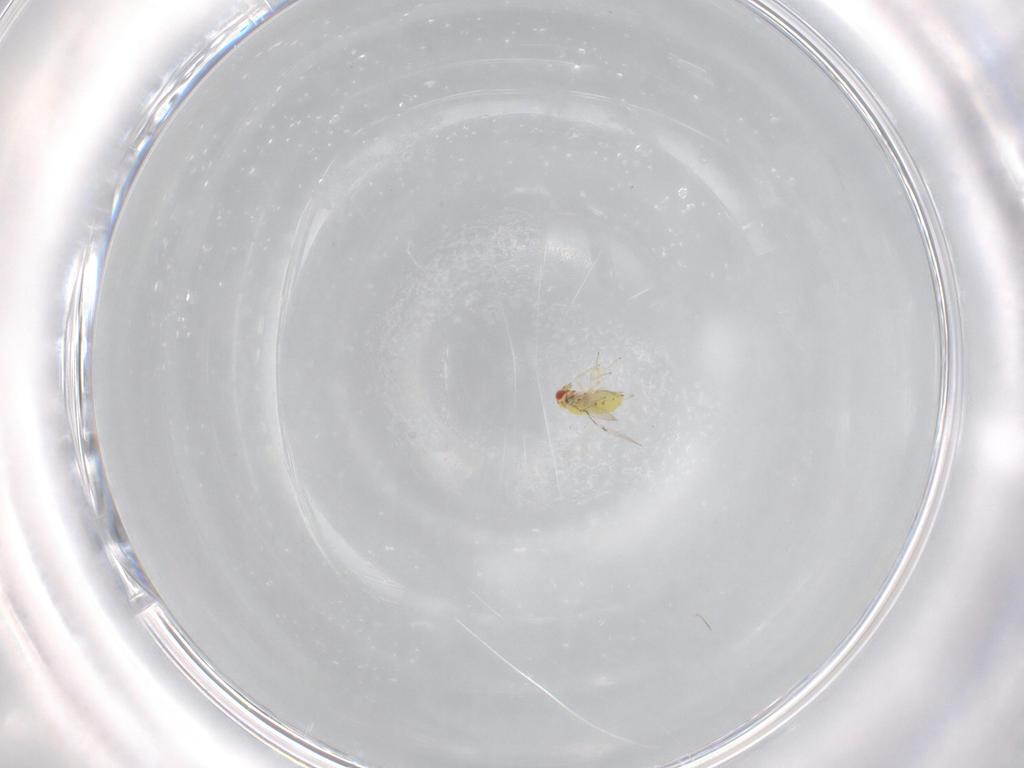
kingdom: Animalia
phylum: Arthropoda
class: Insecta
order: Hymenoptera
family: Trichogrammatidae
